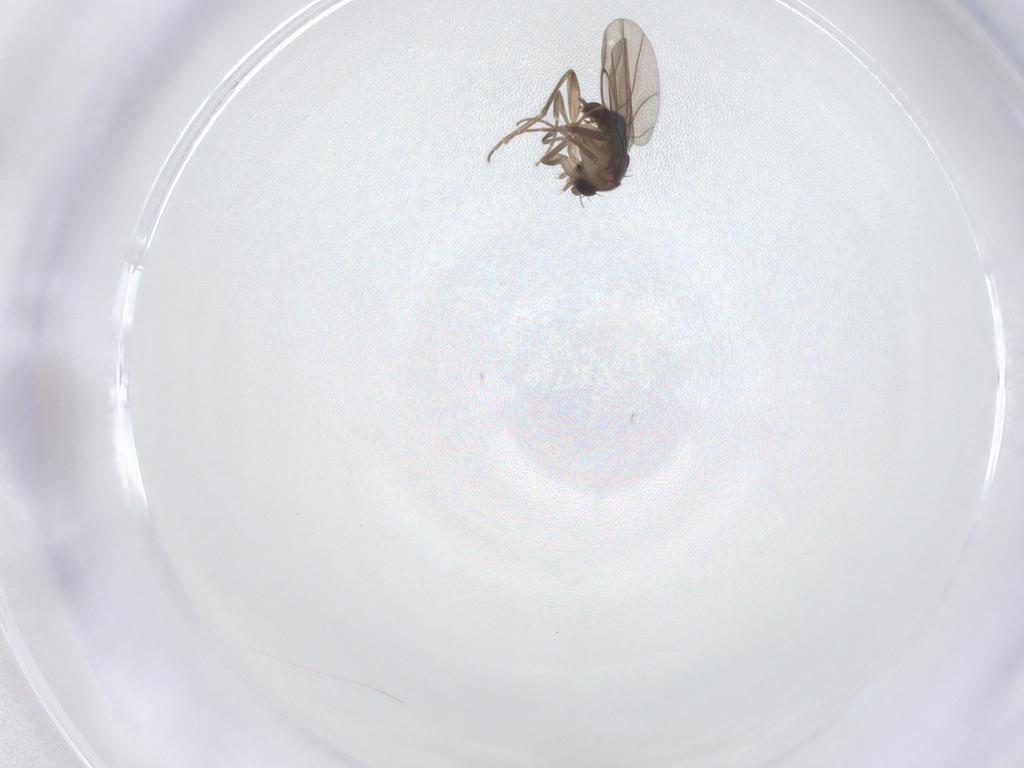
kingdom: Animalia
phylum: Arthropoda
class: Insecta
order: Diptera
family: Phoridae
